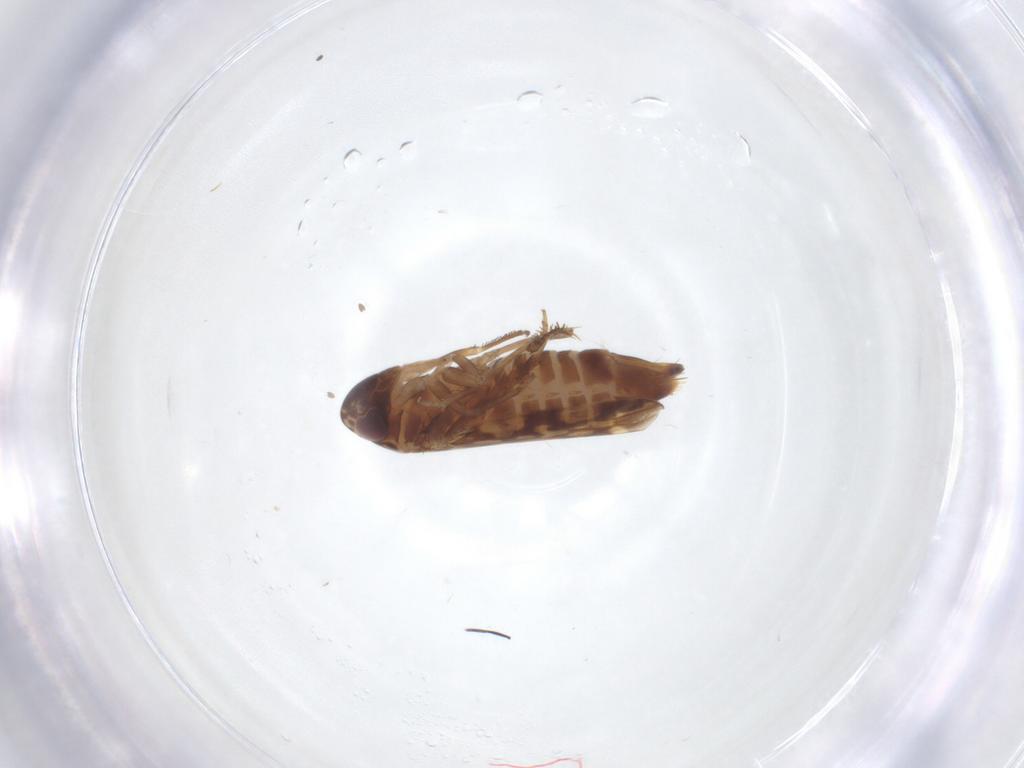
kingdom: Animalia
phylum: Arthropoda
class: Insecta
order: Hemiptera
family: Cicadellidae
